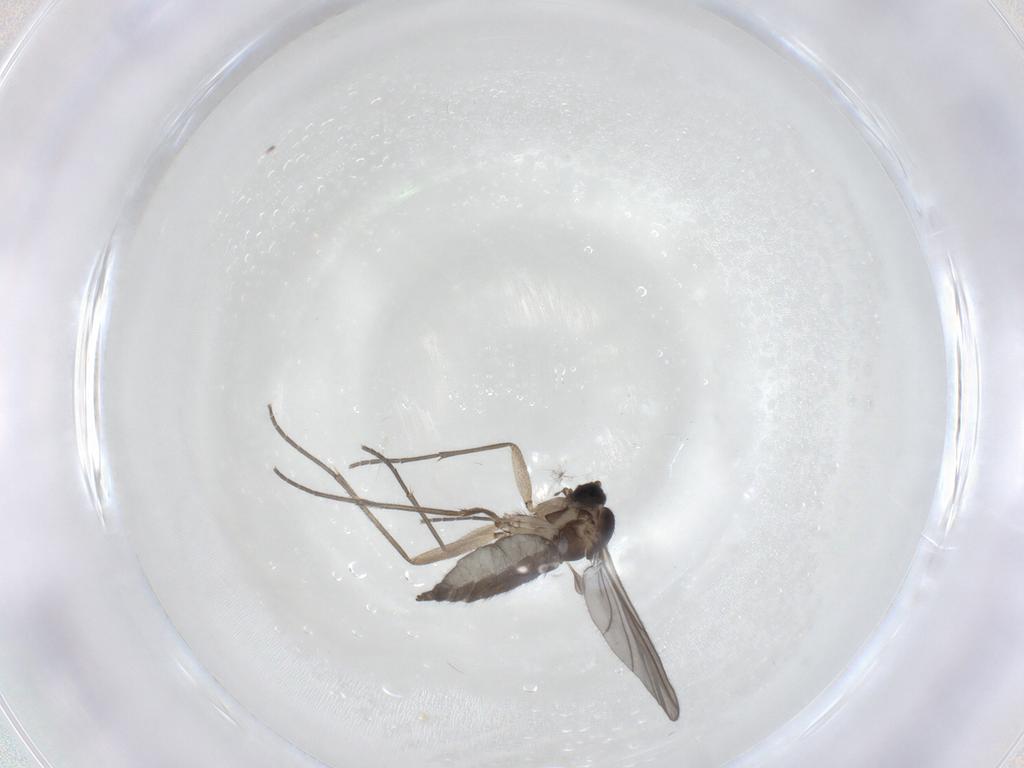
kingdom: Animalia
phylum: Arthropoda
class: Insecta
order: Diptera
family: Sciaridae
